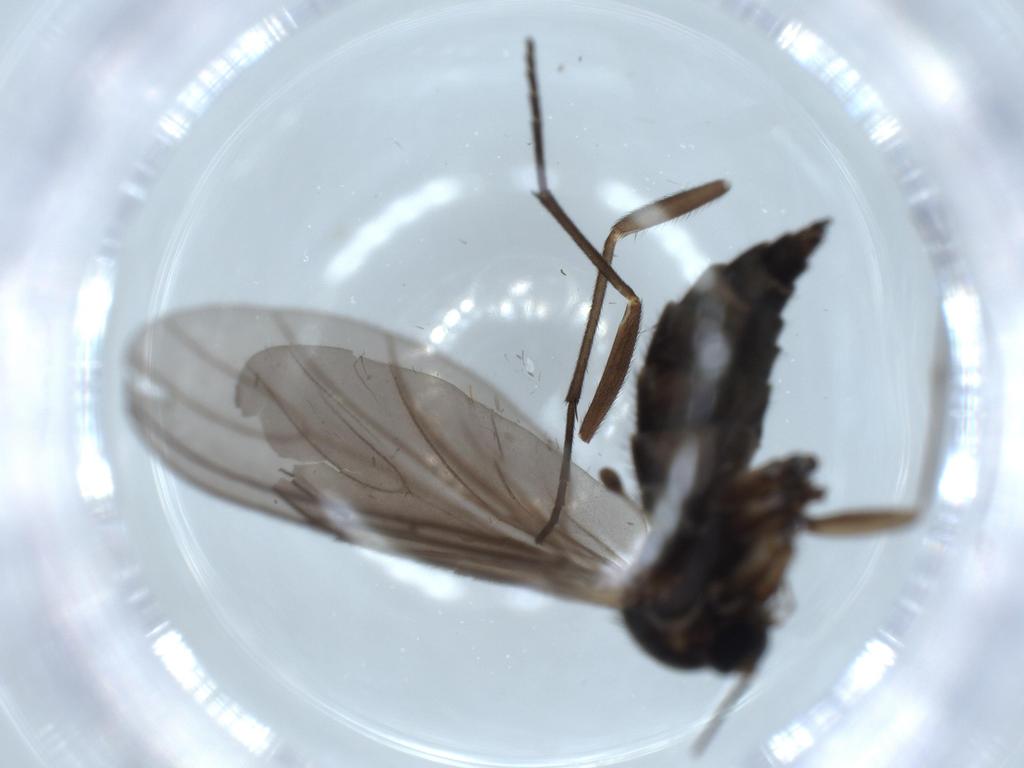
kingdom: Animalia
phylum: Arthropoda
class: Insecta
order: Diptera
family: Sciaridae
